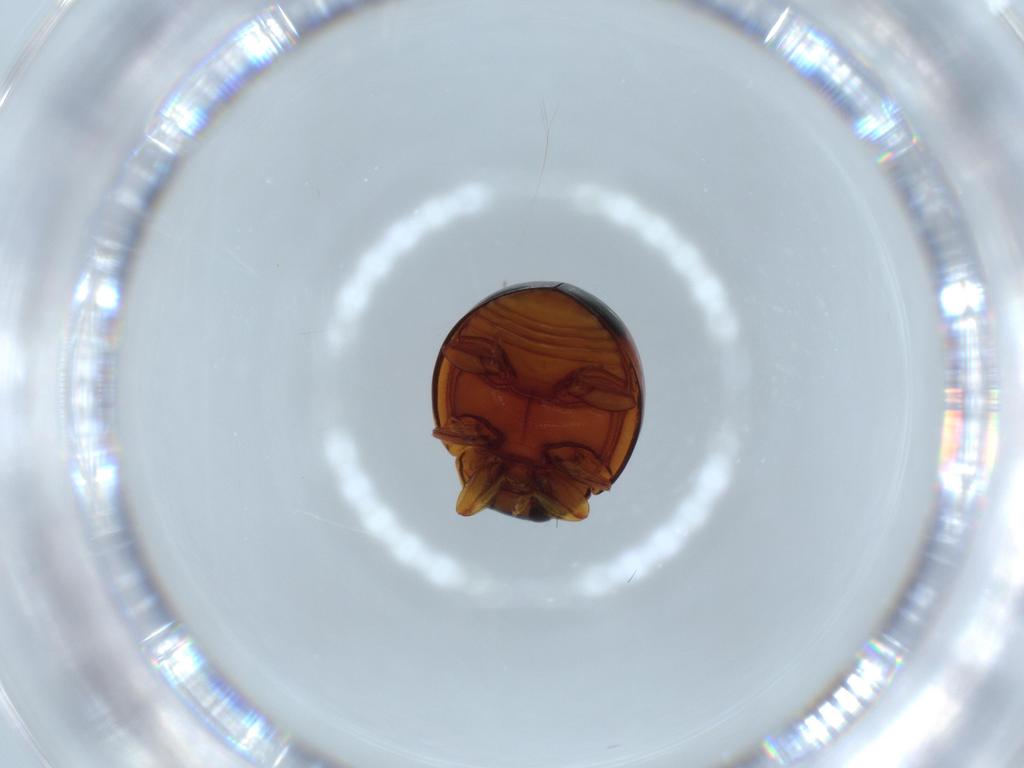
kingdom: Animalia
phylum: Arthropoda
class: Insecta
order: Coleoptera
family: Coccinellidae
